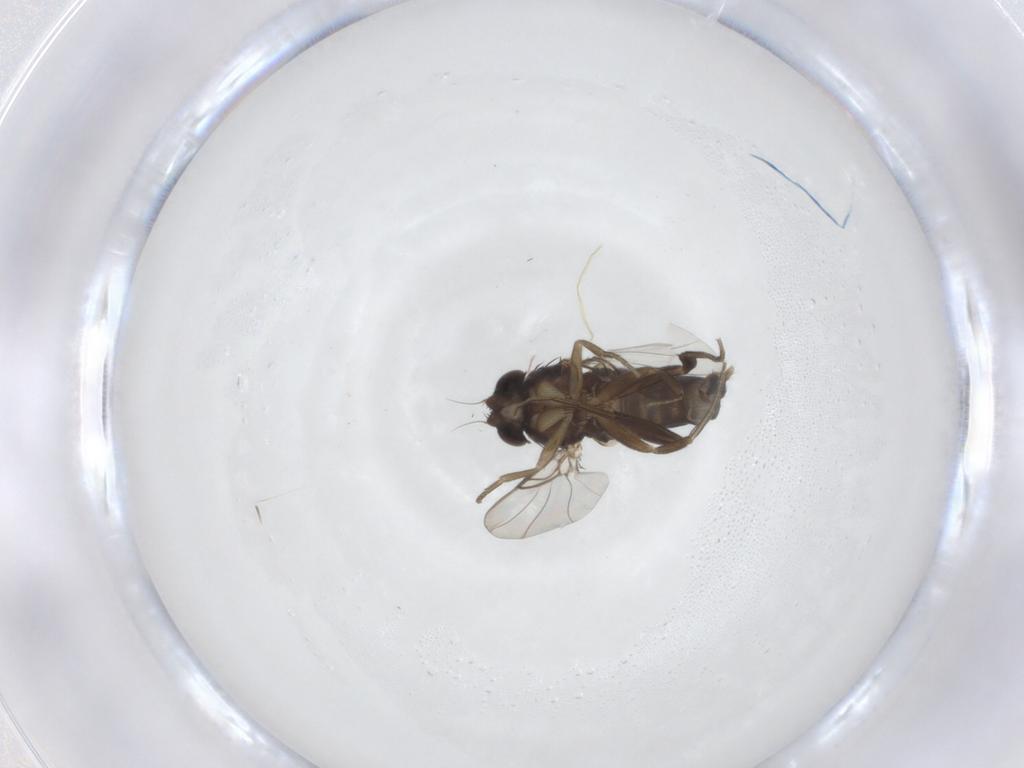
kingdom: Animalia
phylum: Arthropoda
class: Insecta
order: Diptera
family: Phoridae
